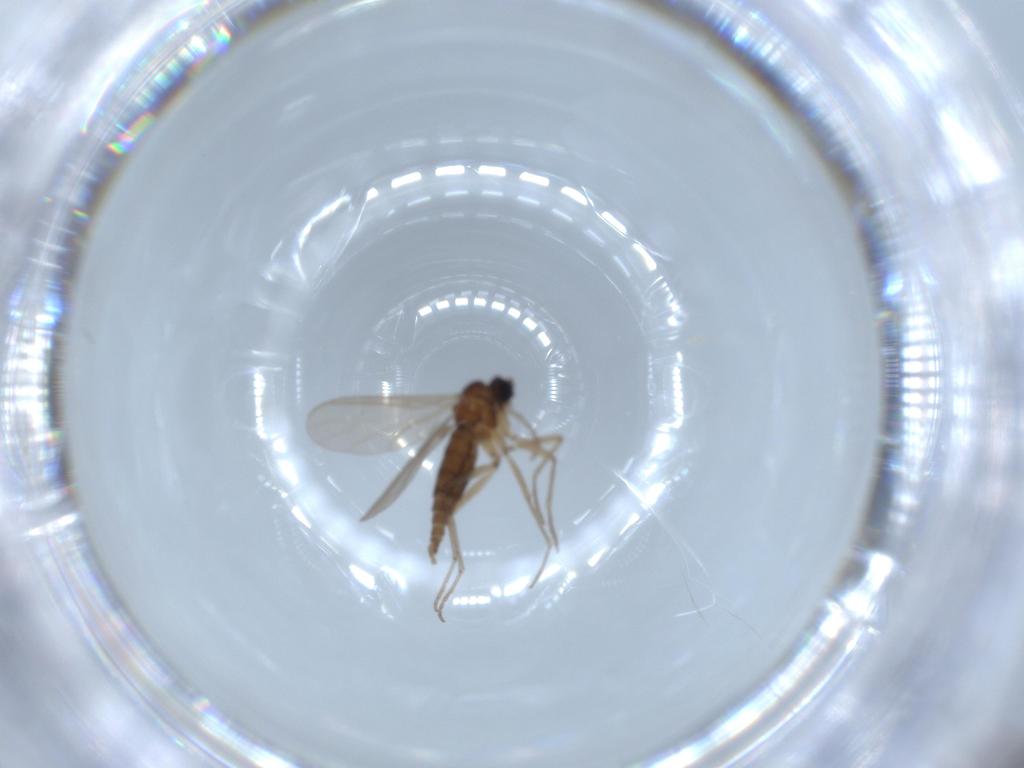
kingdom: Animalia
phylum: Arthropoda
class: Insecta
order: Diptera
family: Sciaridae
